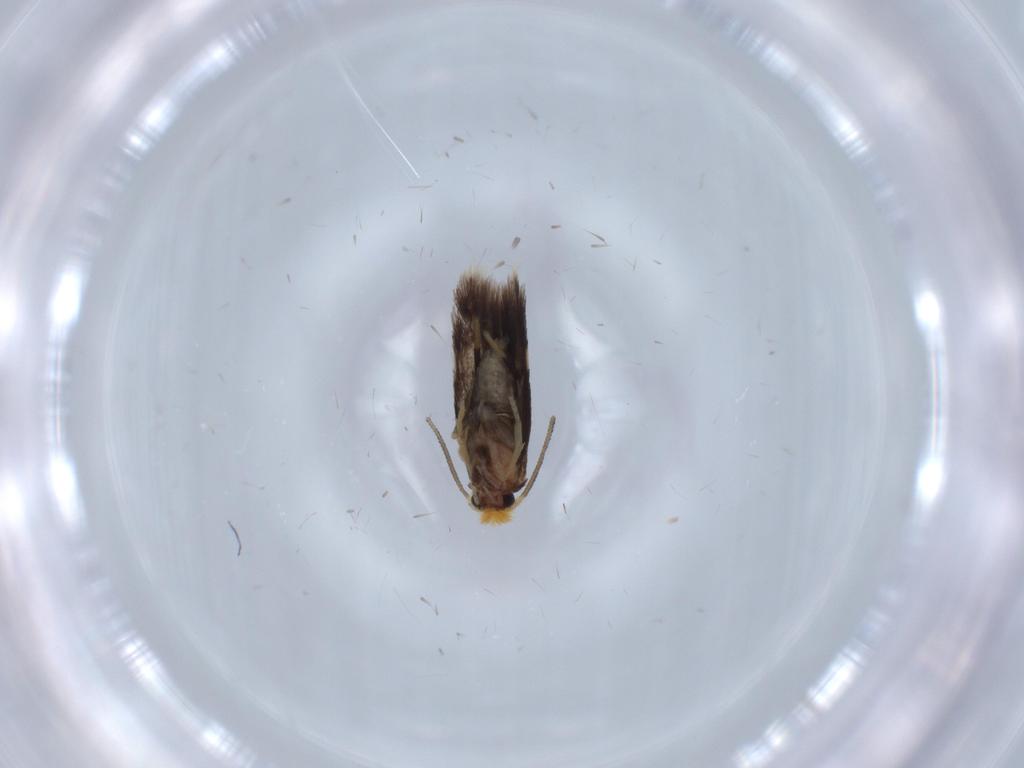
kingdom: Animalia
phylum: Arthropoda
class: Insecta
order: Lepidoptera
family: Nepticulidae
